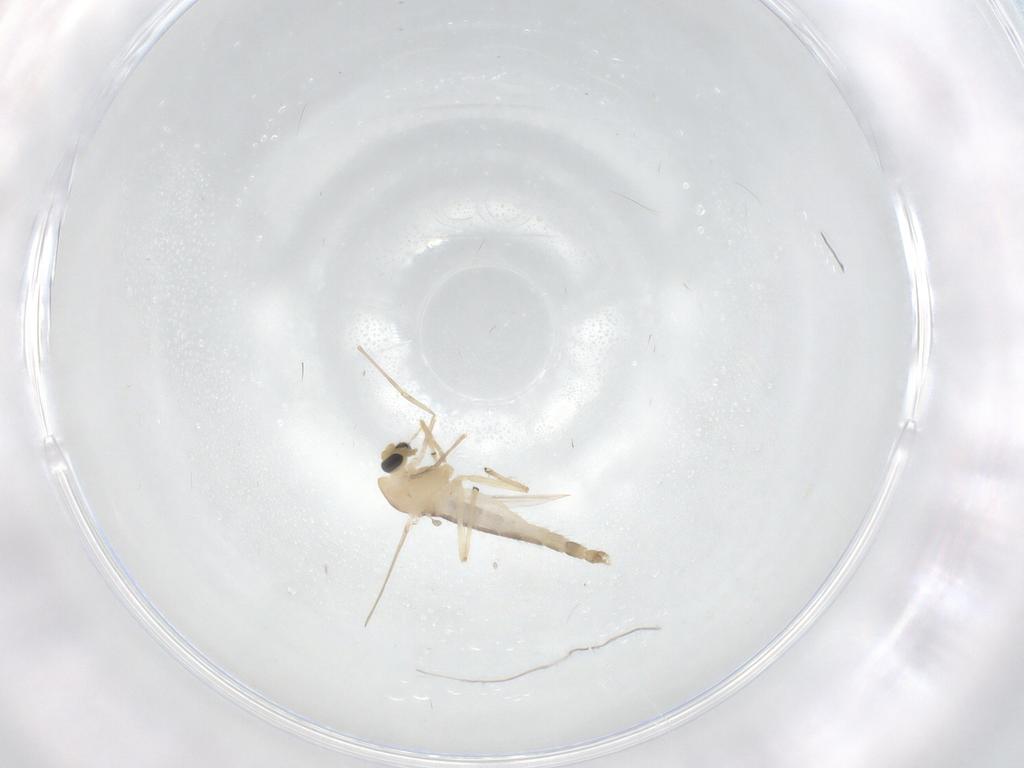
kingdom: Animalia
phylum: Arthropoda
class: Insecta
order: Diptera
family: Chironomidae
